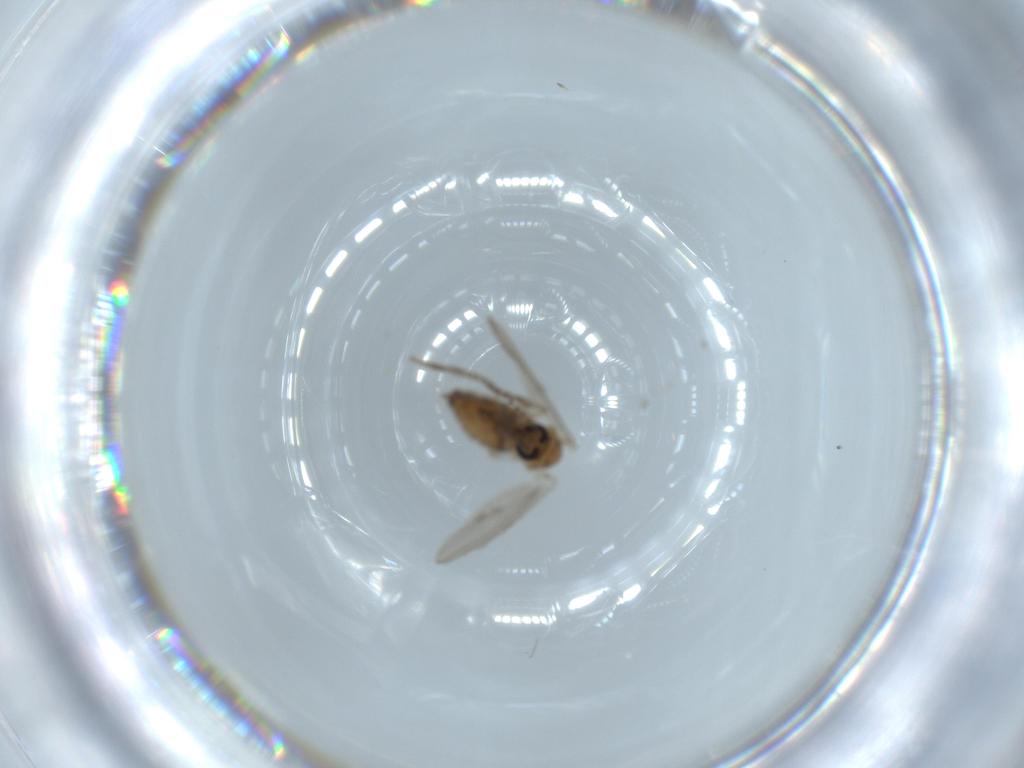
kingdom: Animalia
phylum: Arthropoda
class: Insecta
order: Diptera
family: Psychodidae
